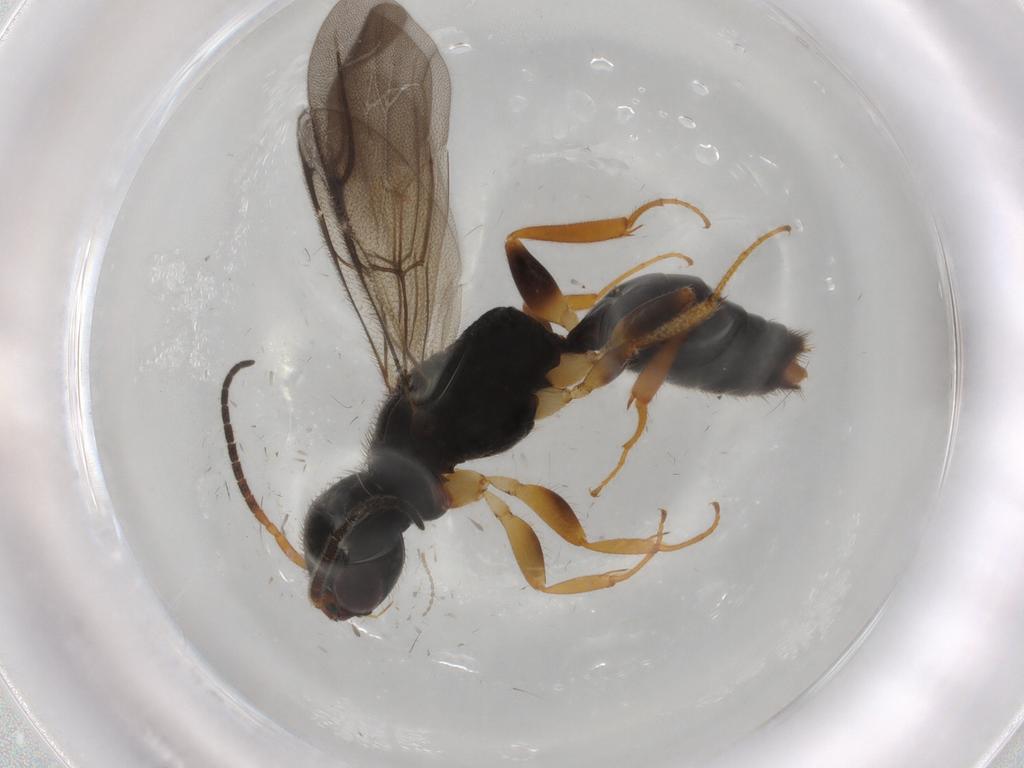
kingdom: Animalia
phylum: Arthropoda
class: Insecta
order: Hymenoptera
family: Bethylidae
